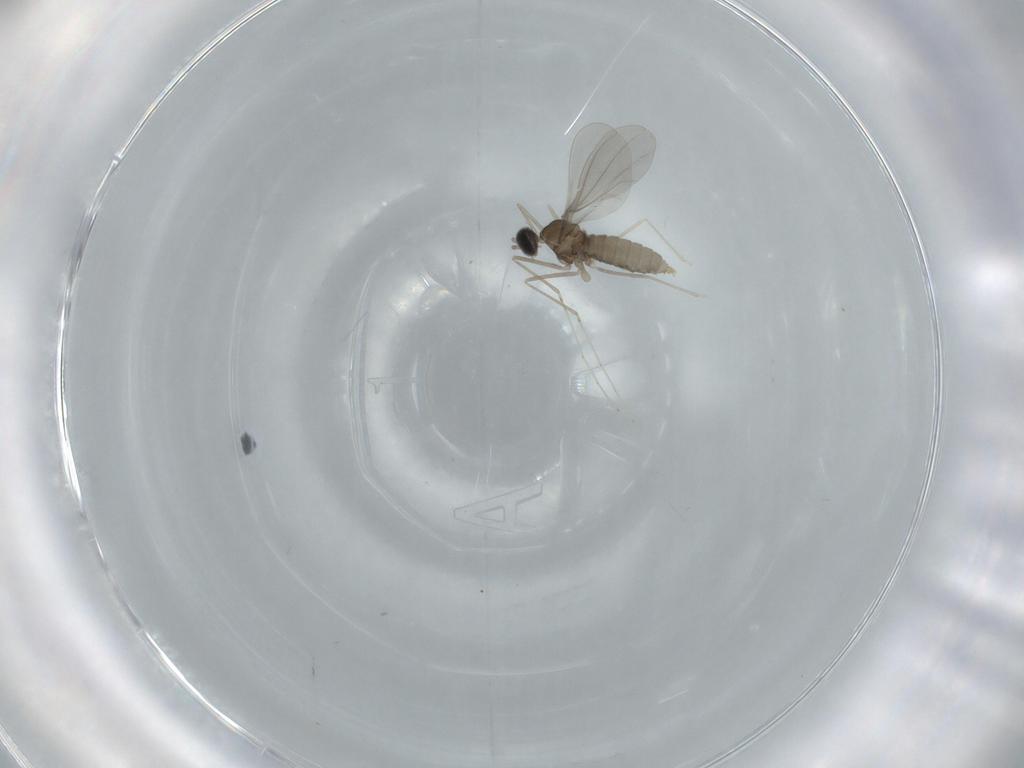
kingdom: Animalia
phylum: Arthropoda
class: Insecta
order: Diptera
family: Cecidomyiidae
